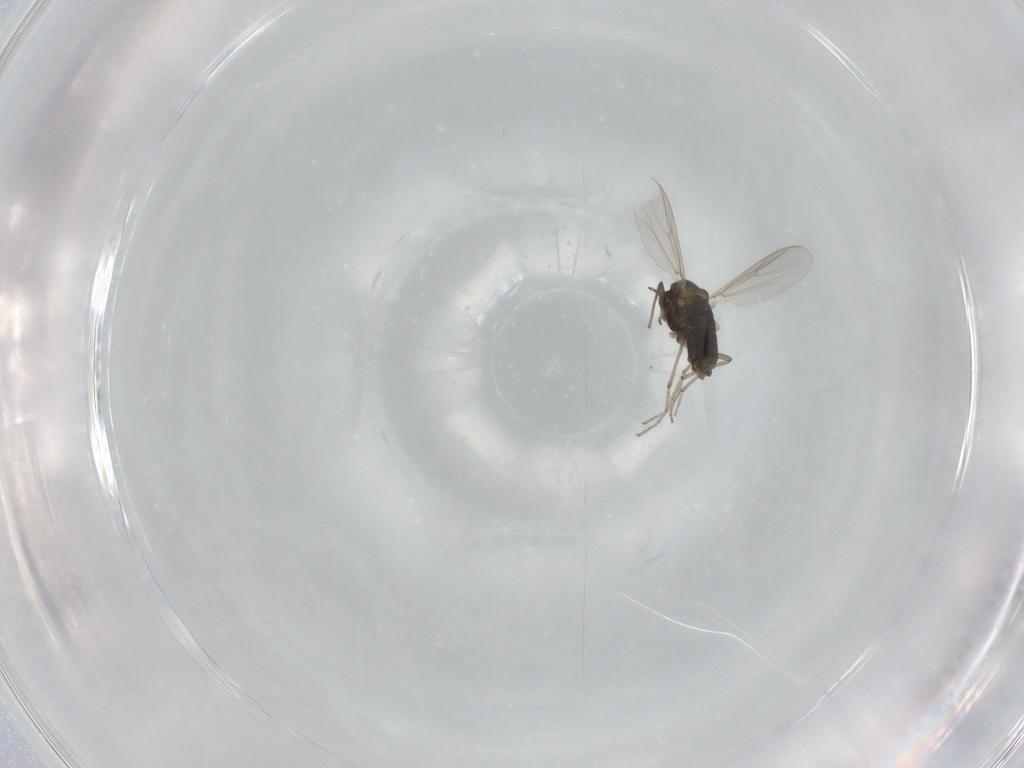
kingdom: Animalia
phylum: Arthropoda
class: Insecta
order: Diptera
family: Chironomidae
